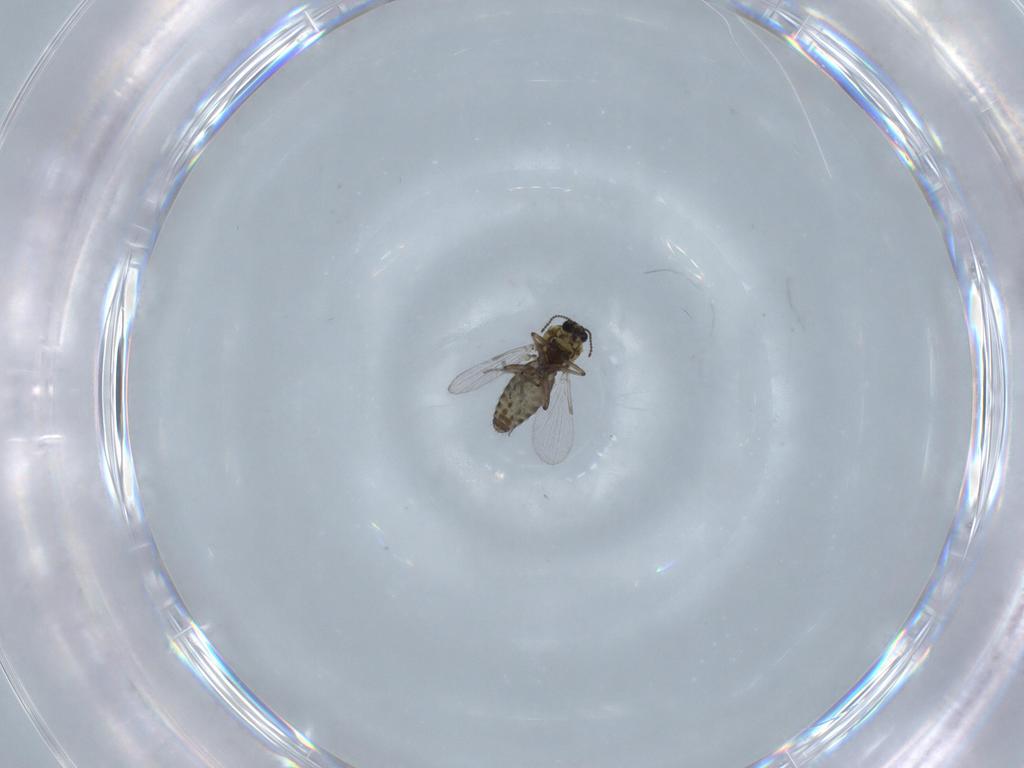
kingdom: Animalia
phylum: Arthropoda
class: Insecta
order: Diptera
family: Ceratopogonidae
